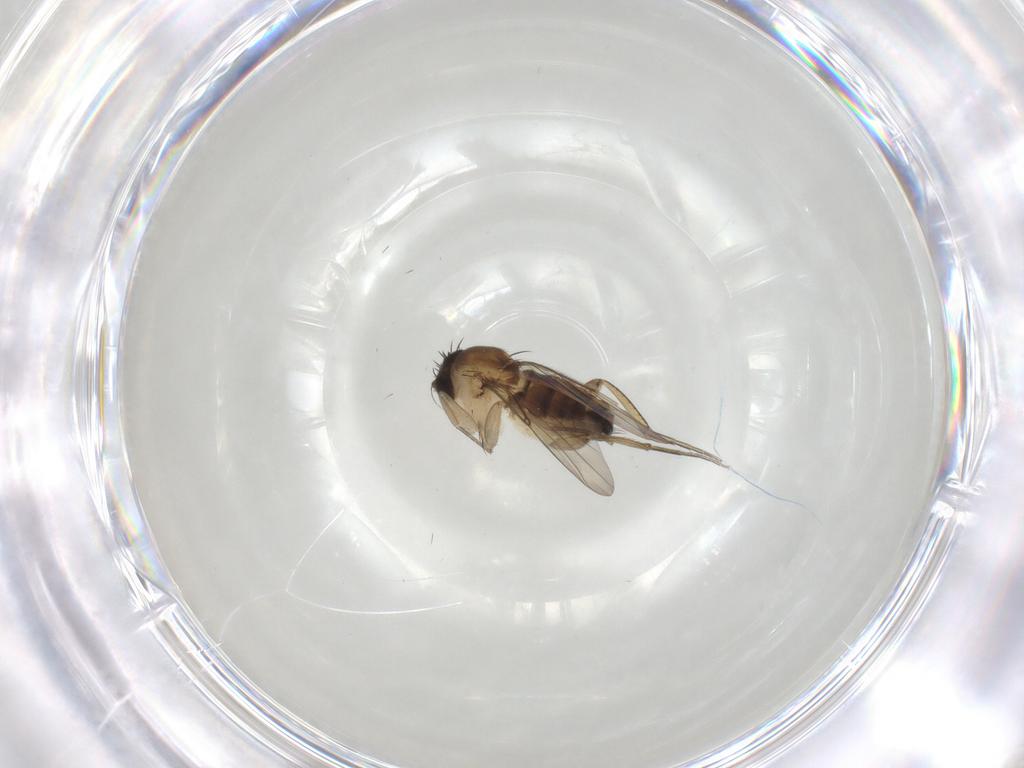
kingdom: Animalia
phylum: Arthropoda
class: Insecta
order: Diptera
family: Phoridae
